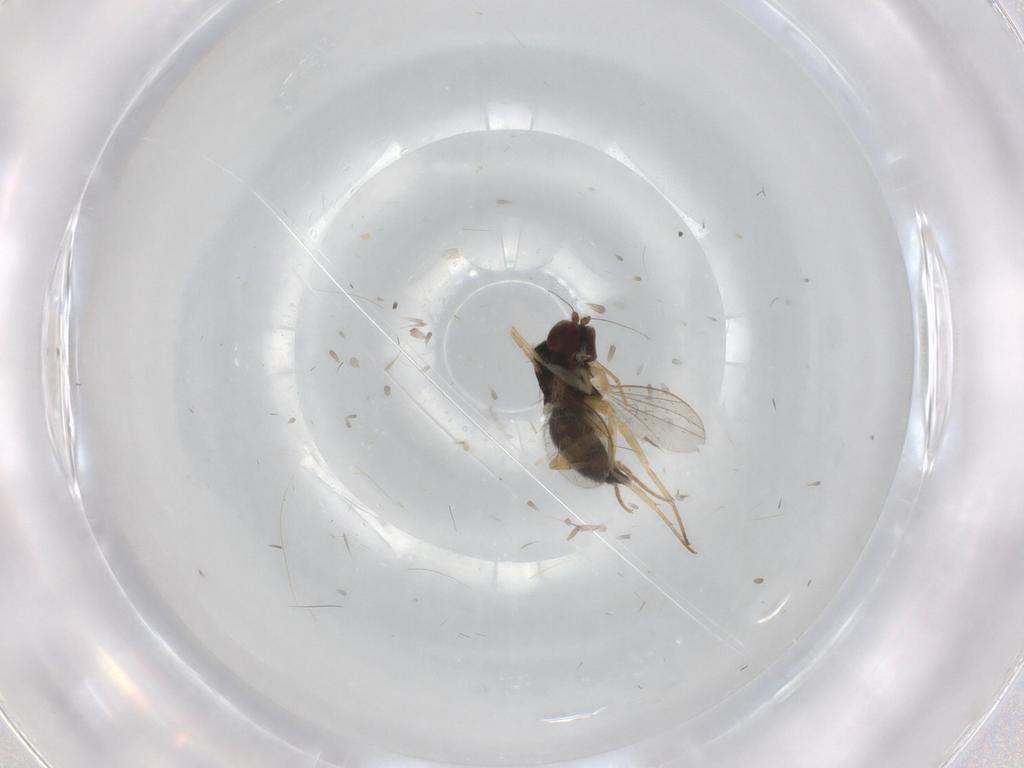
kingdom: Animalia
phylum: Arthropoda
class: Insecta
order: Diptera
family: Dolichopodidae
